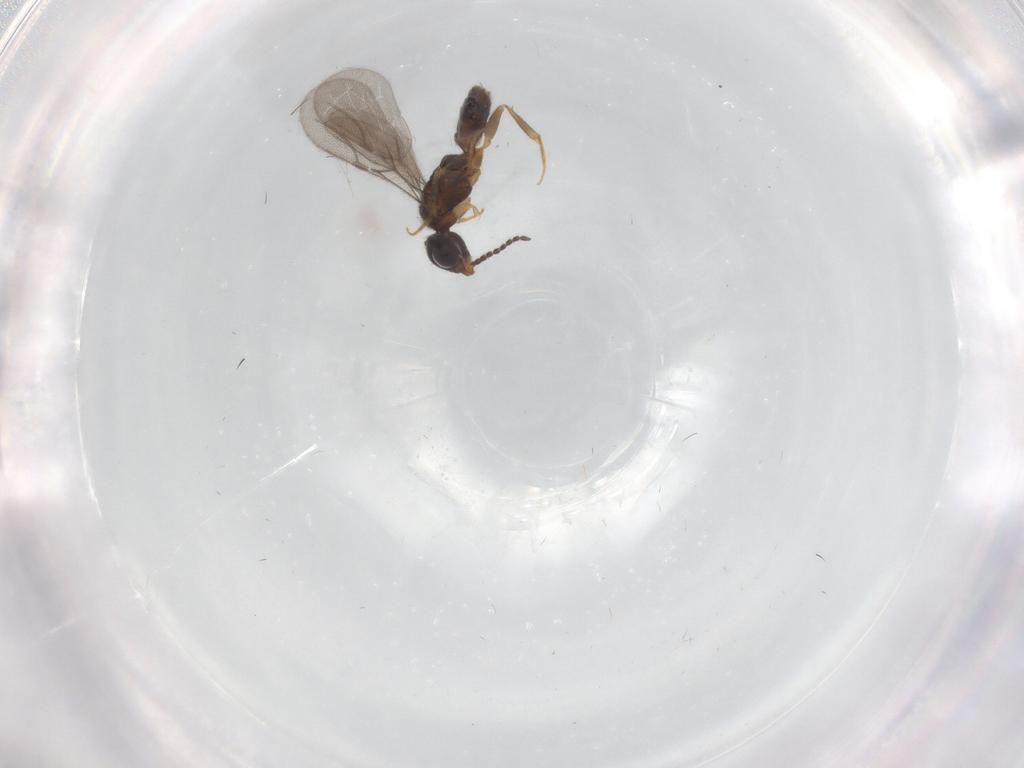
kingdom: Animalia
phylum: Arthropoda
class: Insecta
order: Hymenoptera
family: Bethylidae
